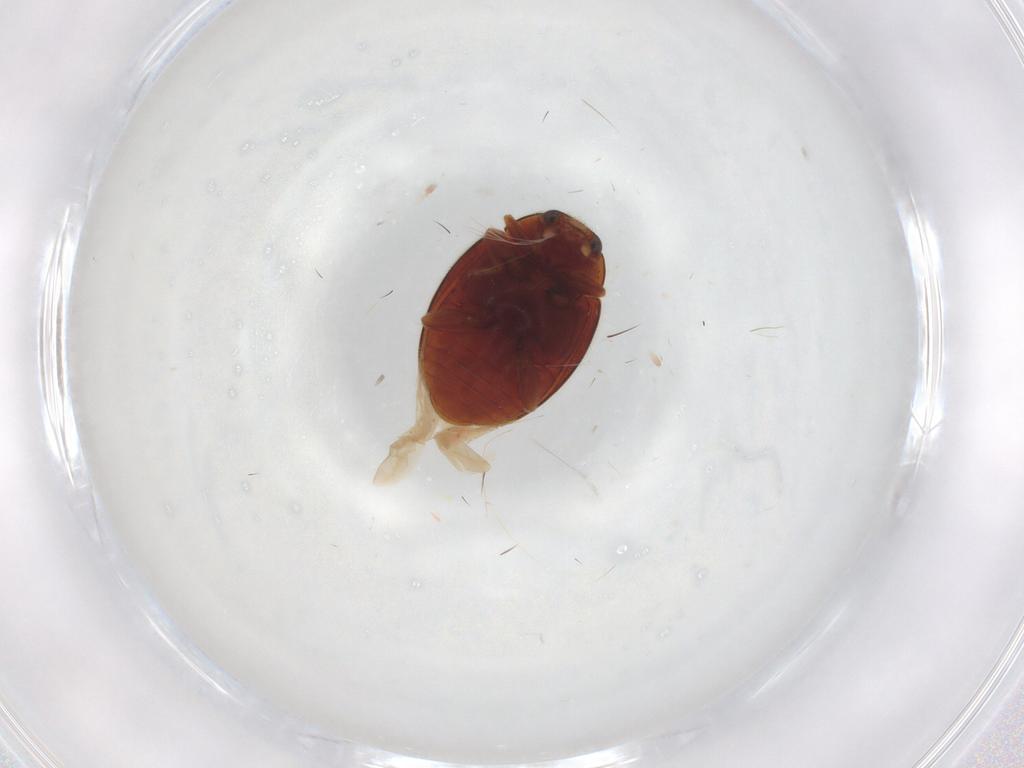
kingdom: Animalia
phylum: Arthropoda
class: Insecta
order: Coleoptera
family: Coccinellidae
